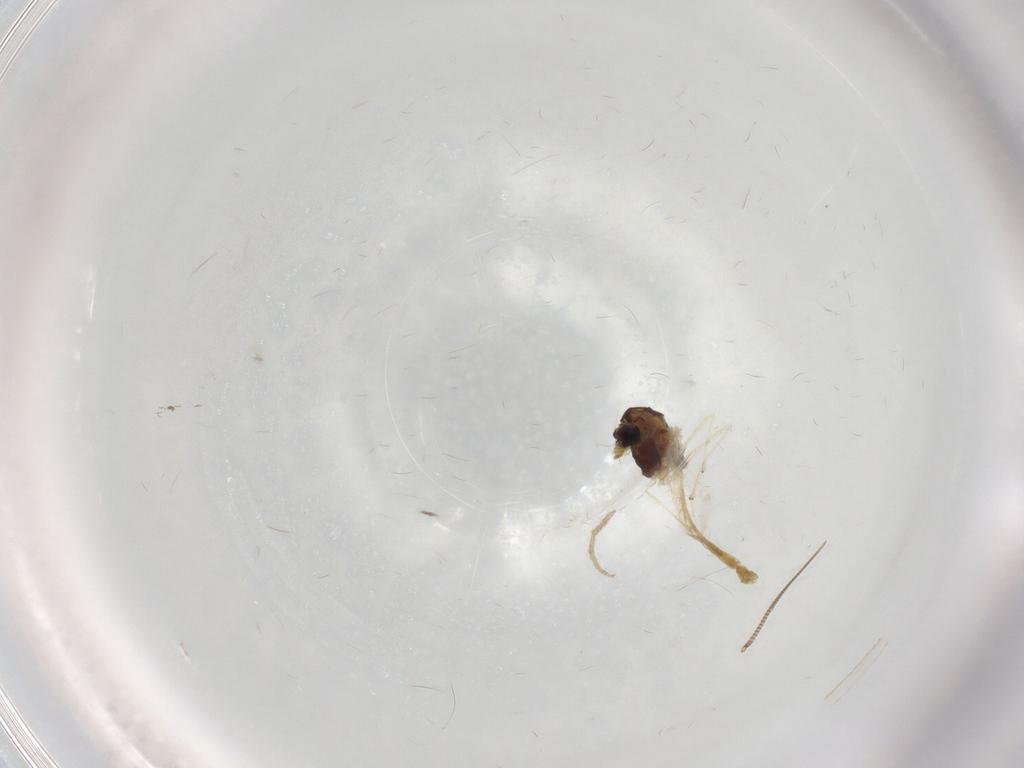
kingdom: Animalia
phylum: Arthropoda
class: Insecta
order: Diptera
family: Chironomidae
